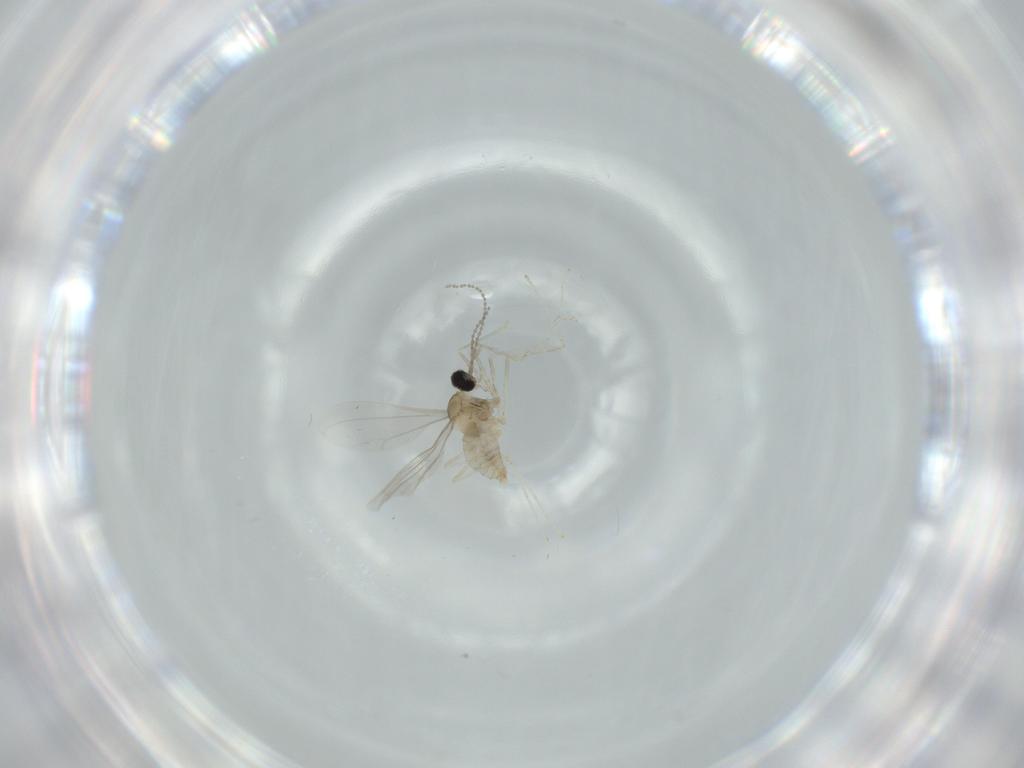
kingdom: Animalia
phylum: Arthropoda
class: Insecta
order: Diptera
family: Cecidomyiidae
